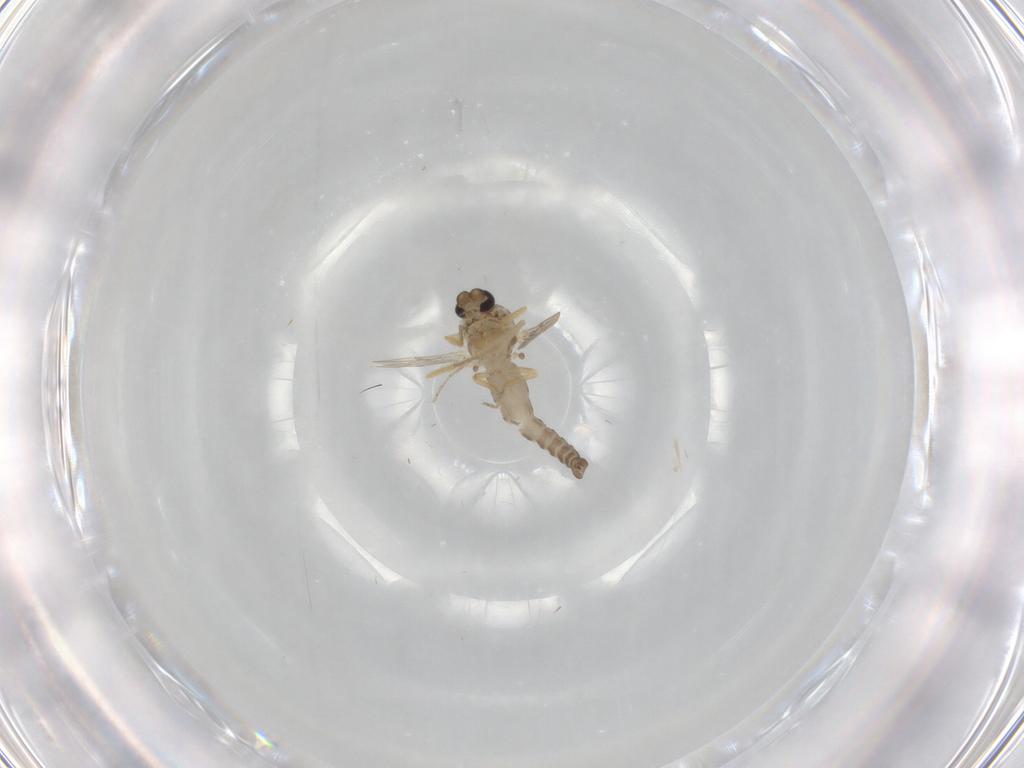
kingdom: Animalia
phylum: Arthropoda
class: Insecta
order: Diptera
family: Ceratopogonidae
